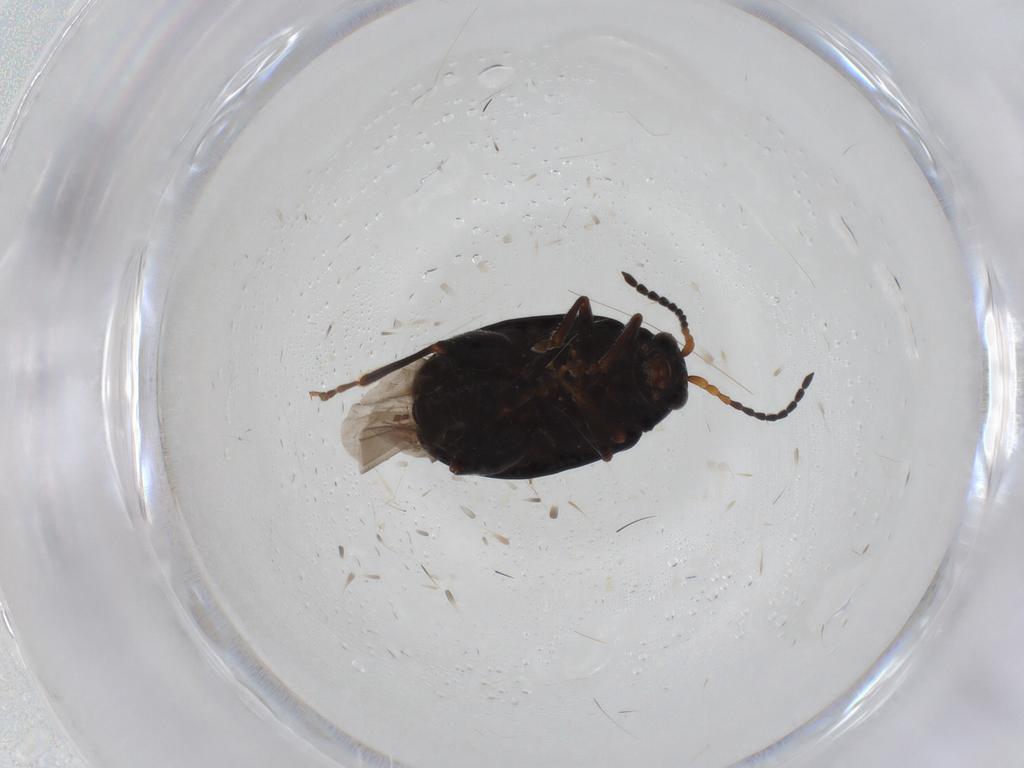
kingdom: Animalia
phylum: Arthropoda
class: Insecta
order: Coleoptera
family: Chrysomelidae
